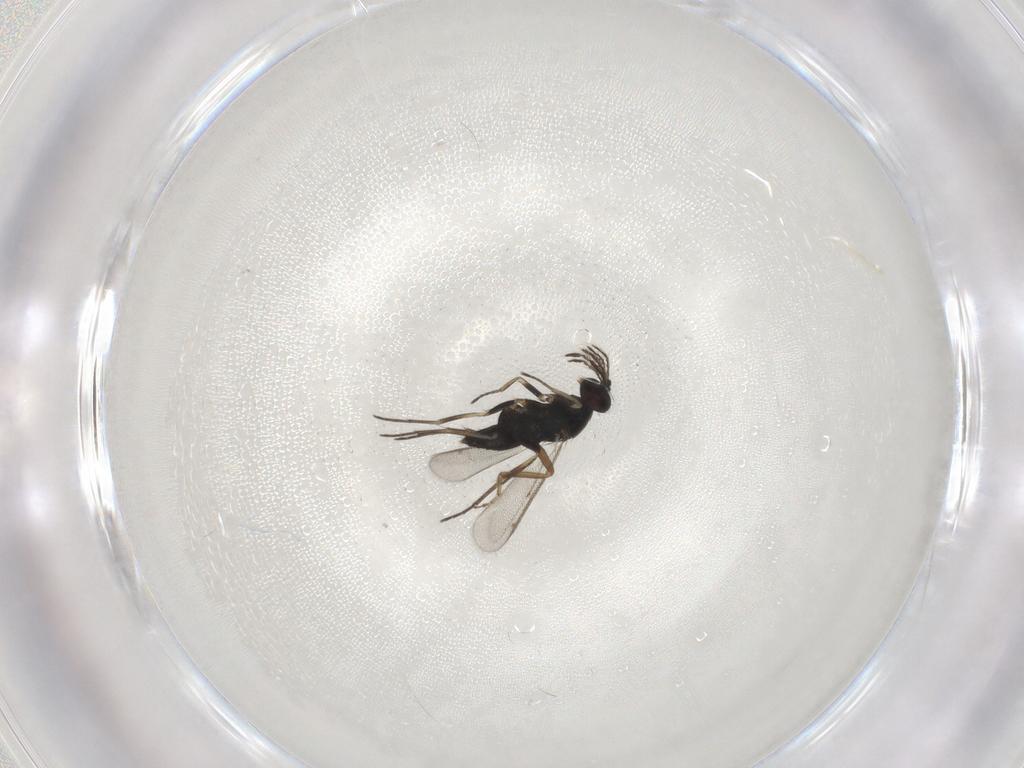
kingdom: Animalia
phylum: Arthropoda
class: Insecta
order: Hymenoptera
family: Eulophidae
